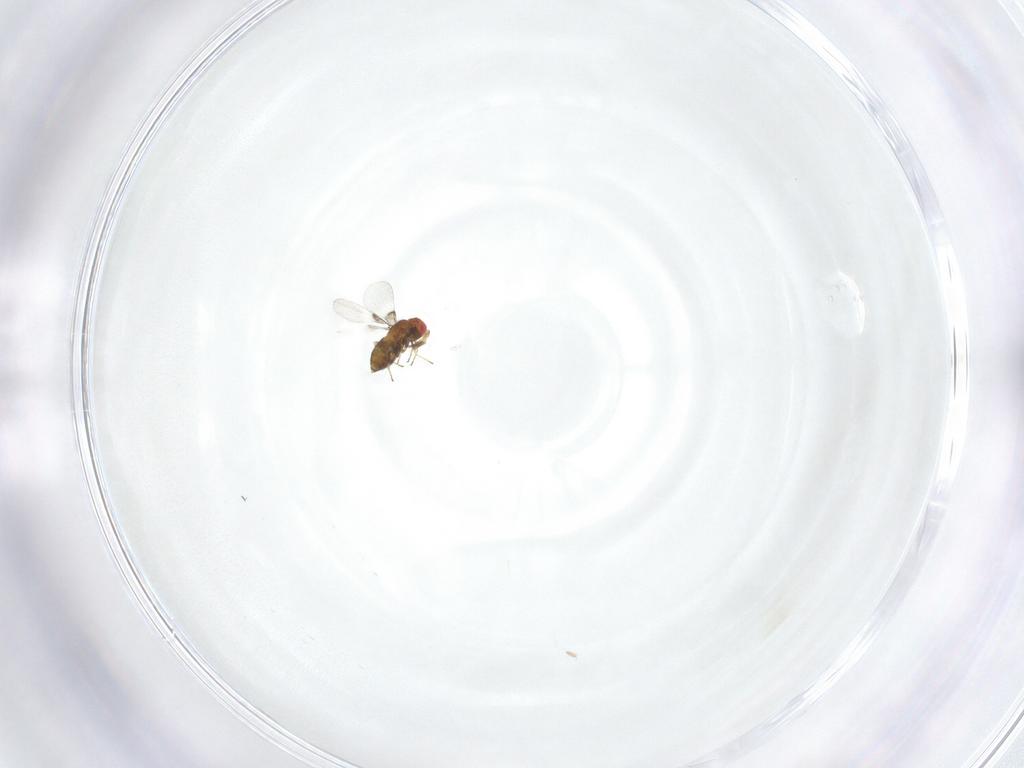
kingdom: Animalia
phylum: Arthropoda
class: Insecta
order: Hymenoptera
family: Trichogrammatidae
